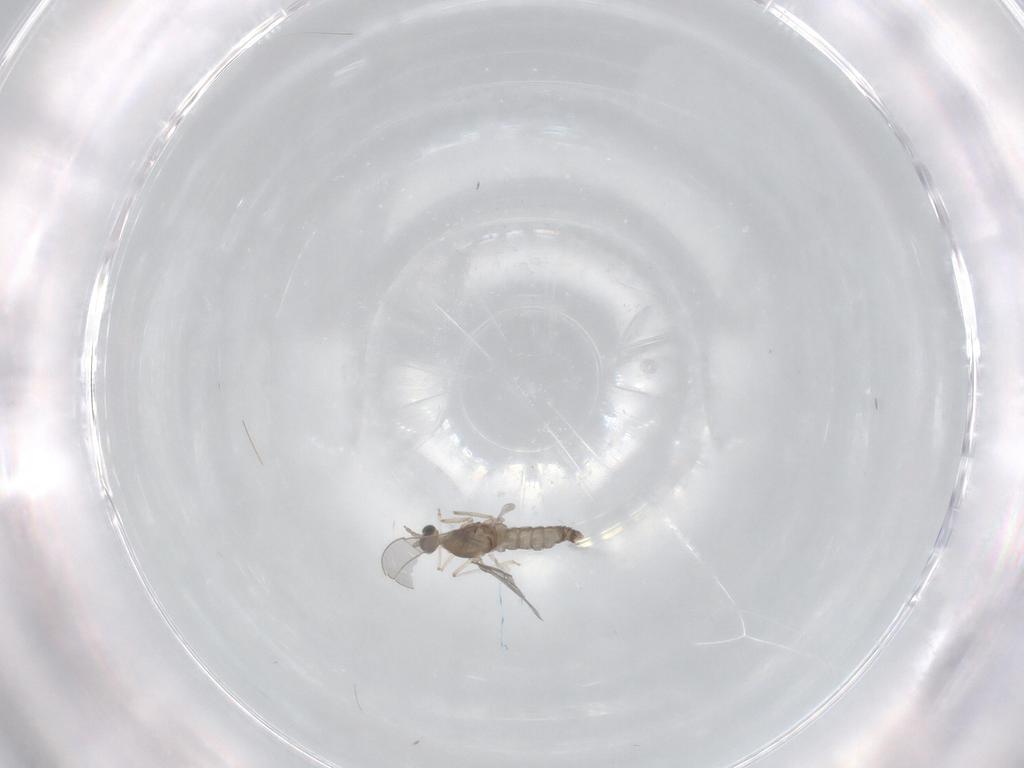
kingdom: Animalia
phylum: Arthropoda
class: Insecta
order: Diptera
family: Cecidomyiidae
